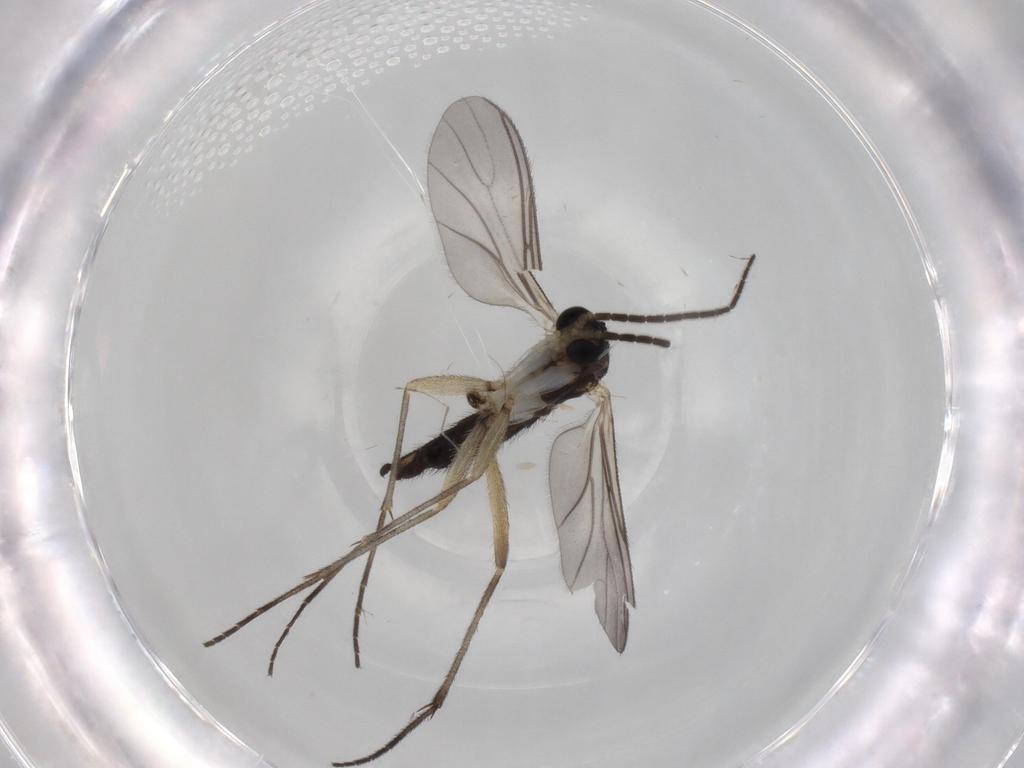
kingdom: Animalia
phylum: Arthropoda
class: Insecta
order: Diptera
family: Sciaridae
